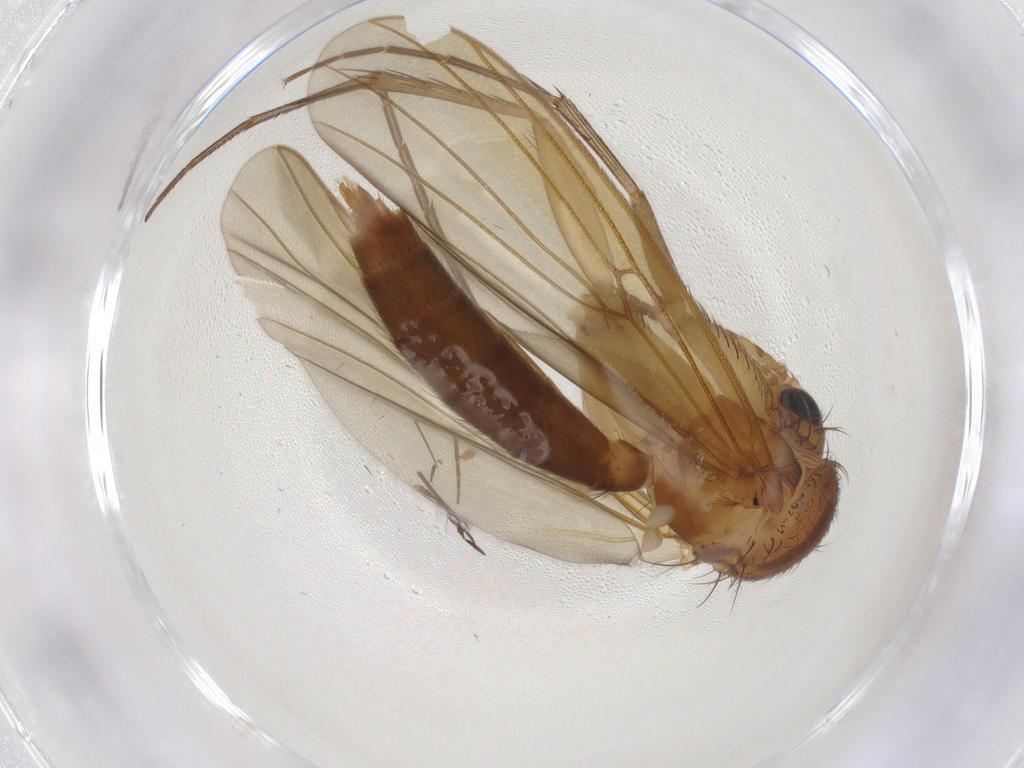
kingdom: Animalia
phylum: Arthropoda
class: Insecta
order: Diptera
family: Mycetophilidae
